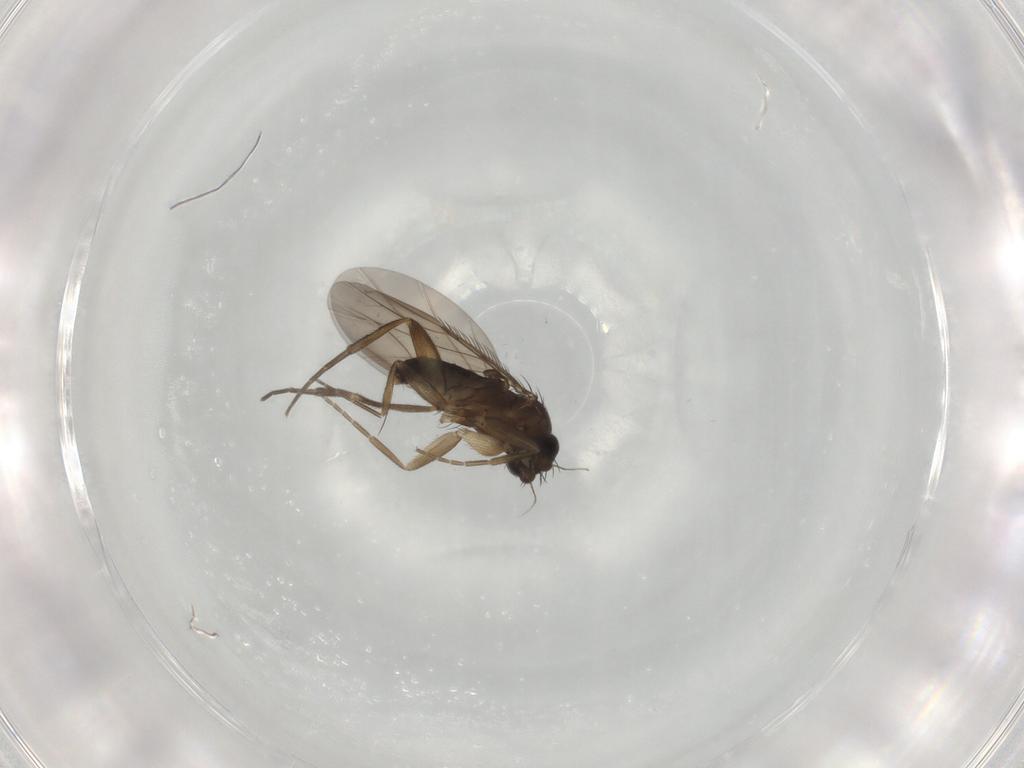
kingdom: Animalia
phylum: Arthropoda
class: Insecta
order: Diptera
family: Phoridae
